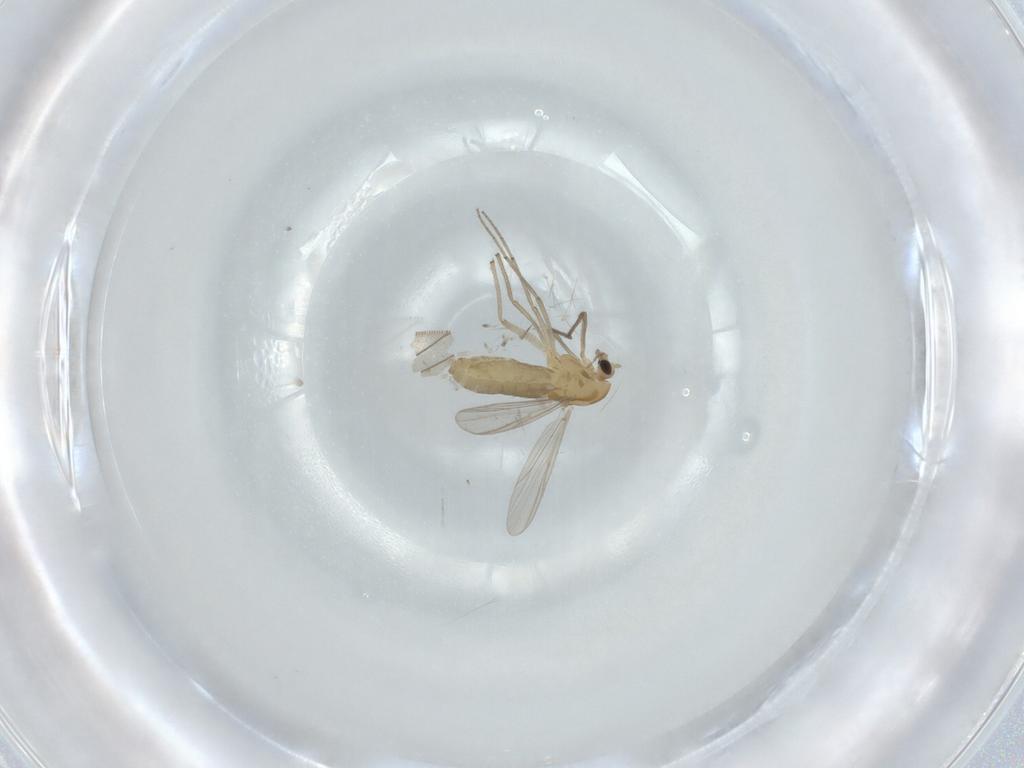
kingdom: Animalia
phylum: Arthropoda
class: Insecta
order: Diptera
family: Chironomidae
